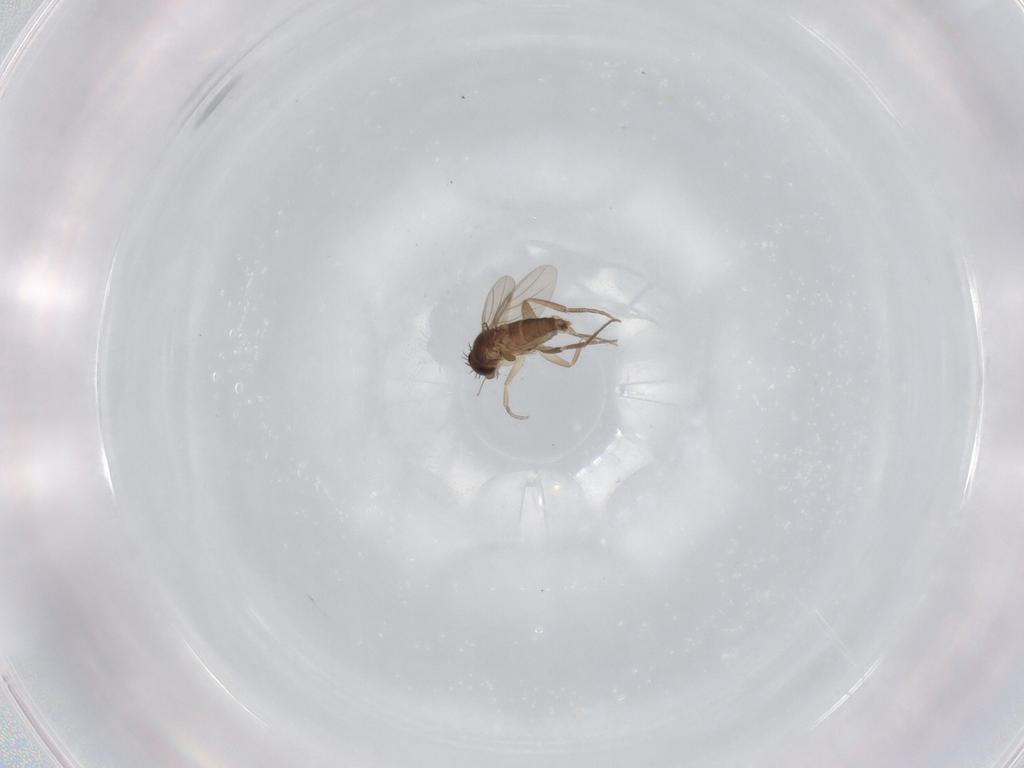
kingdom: Animalia
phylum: Arthropoda
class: Insecta
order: Diptera
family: Phoridae
